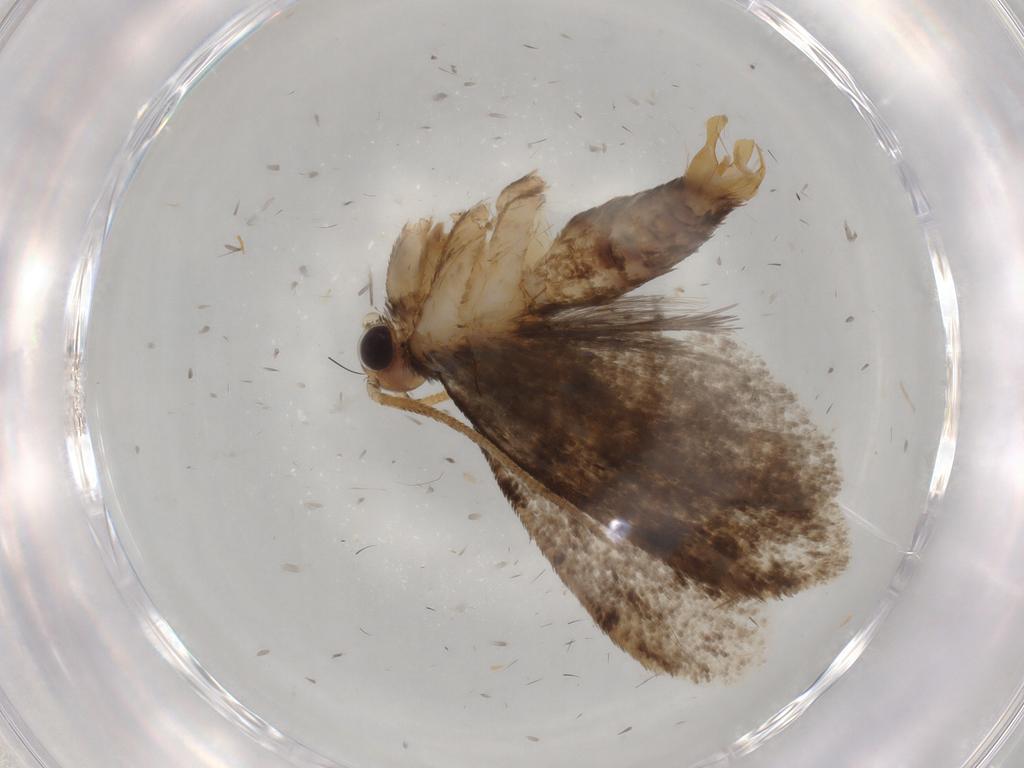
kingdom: Animalia
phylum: Arthropoda
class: Insecta
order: Lepidoptera
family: Tineidae
